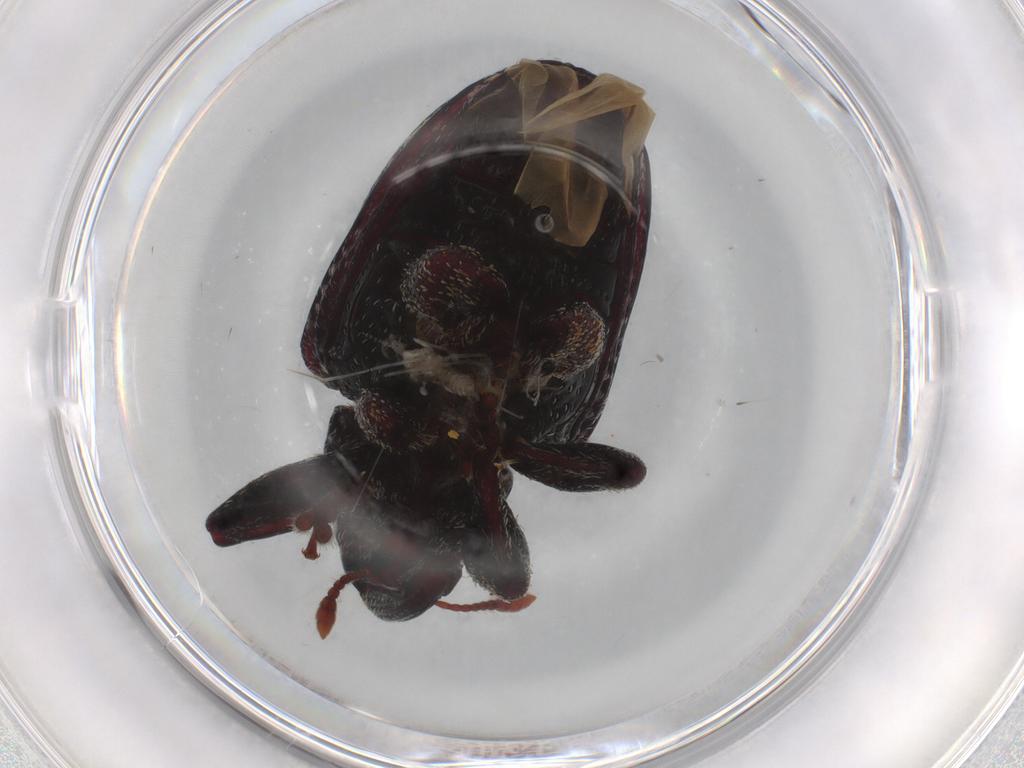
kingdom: Animalia
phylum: Arthropoda
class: Insecta
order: Coleoptera
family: Curculionidae
